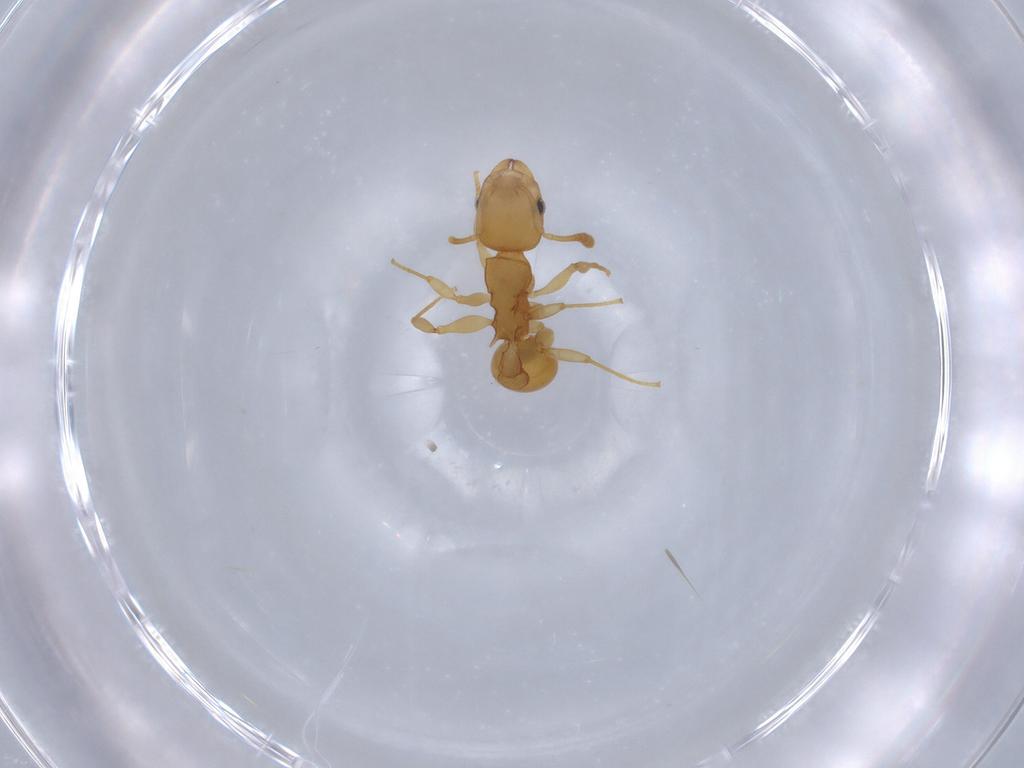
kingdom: Animalia
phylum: Arthropoda
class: Insecta
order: Hymenoptera
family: Formicidae
